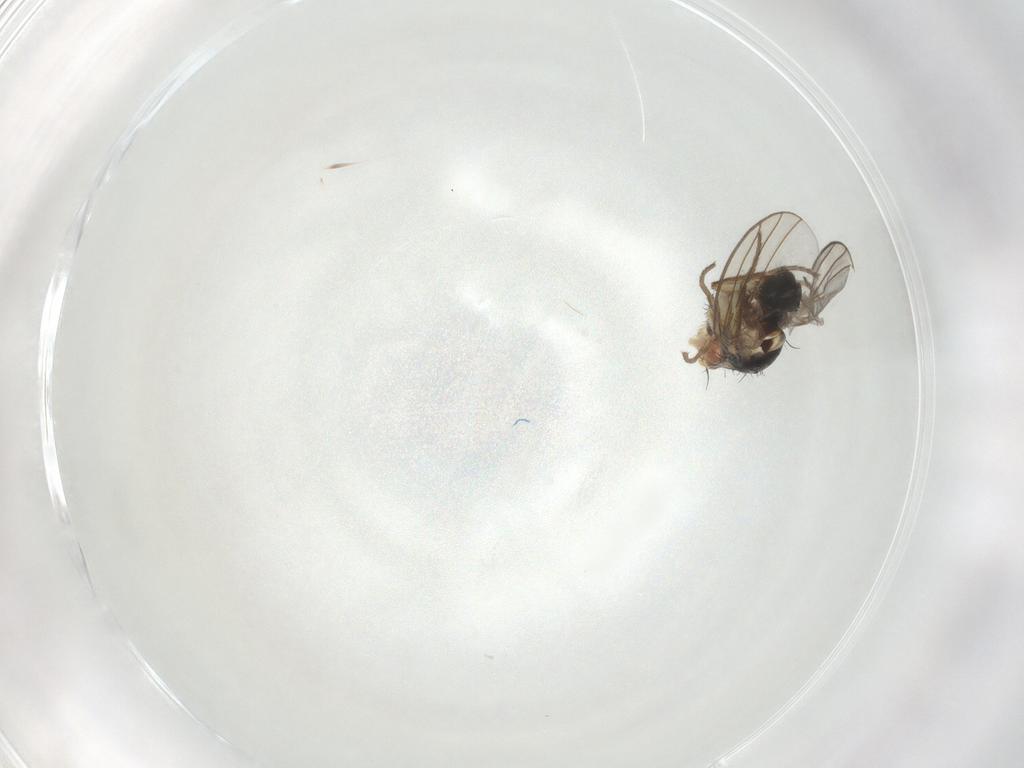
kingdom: Animalia
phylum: Arthropoda
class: Insecta
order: Diptera
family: Agromyzidae
